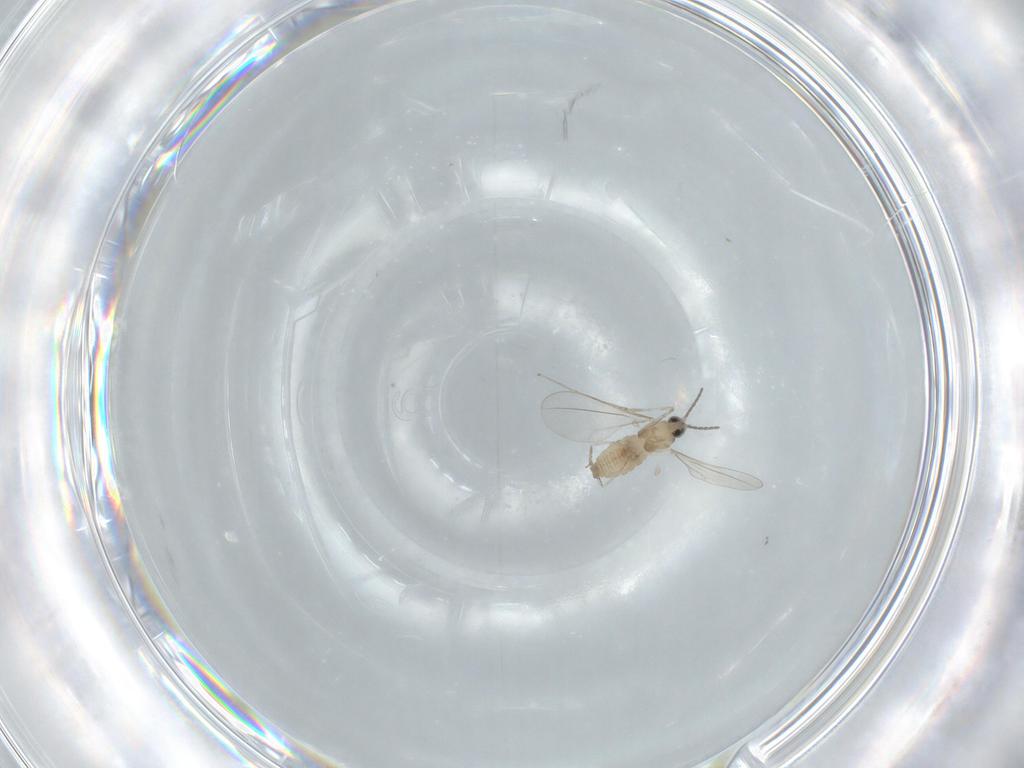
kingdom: Animalia
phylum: Arthropoda
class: Insecta
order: Diptera
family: Cecidomyiidae
